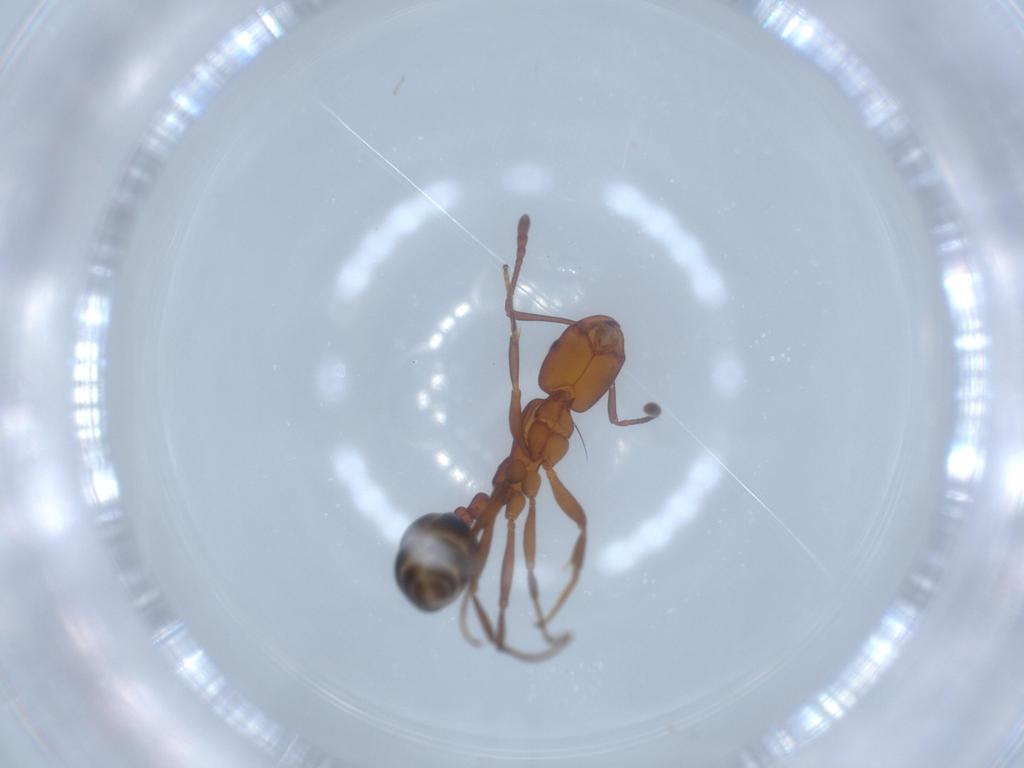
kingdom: Animalia
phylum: Arthropoda
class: Insecta
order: Hymenoptera
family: Formicidae
